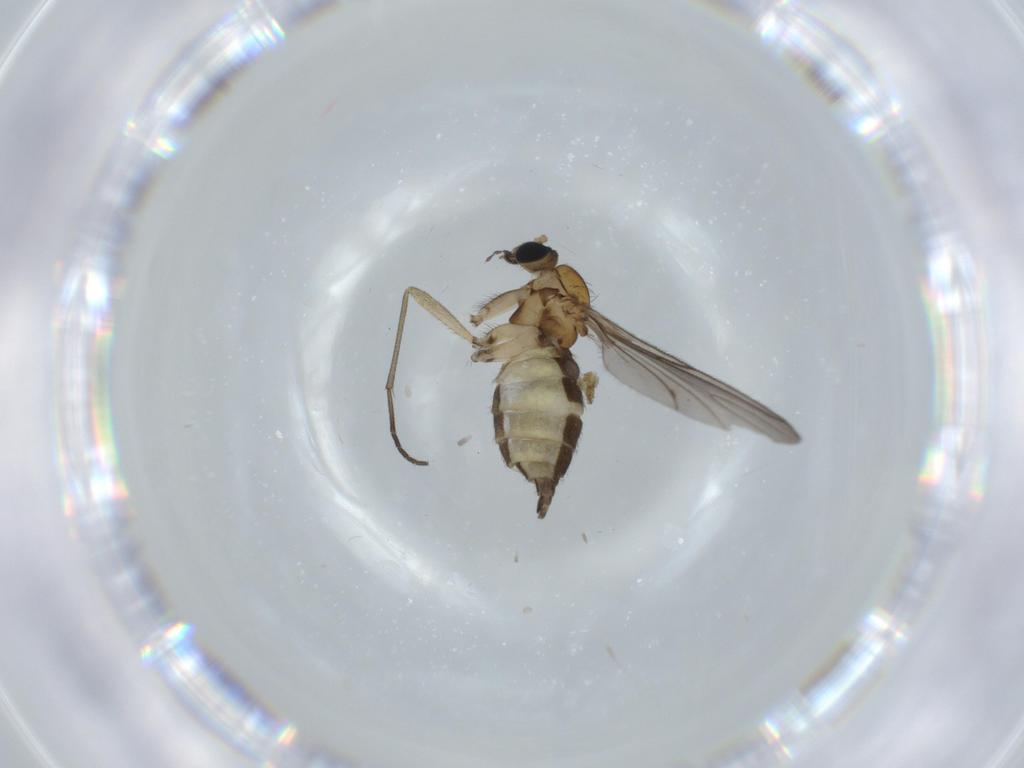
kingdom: Animalia
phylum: Arthropoda
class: Insecta
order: Diptera
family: Sciaridae
